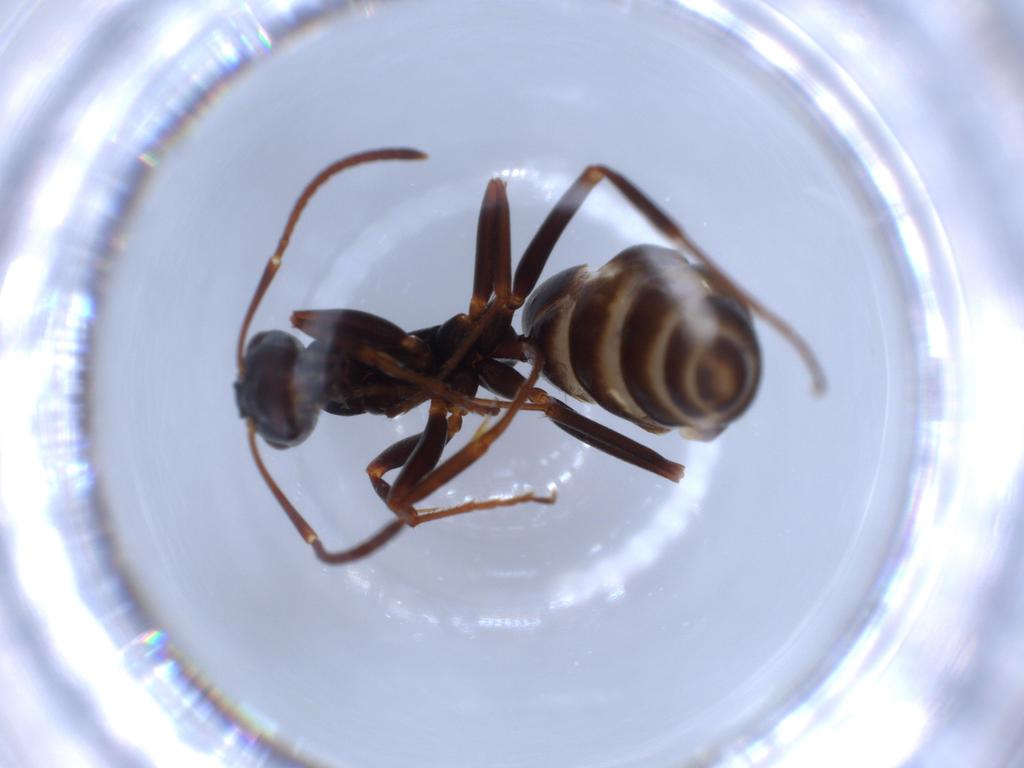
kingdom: Animalia
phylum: Arthropoda
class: Insecta
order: Hymenoptera
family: Formicidae
